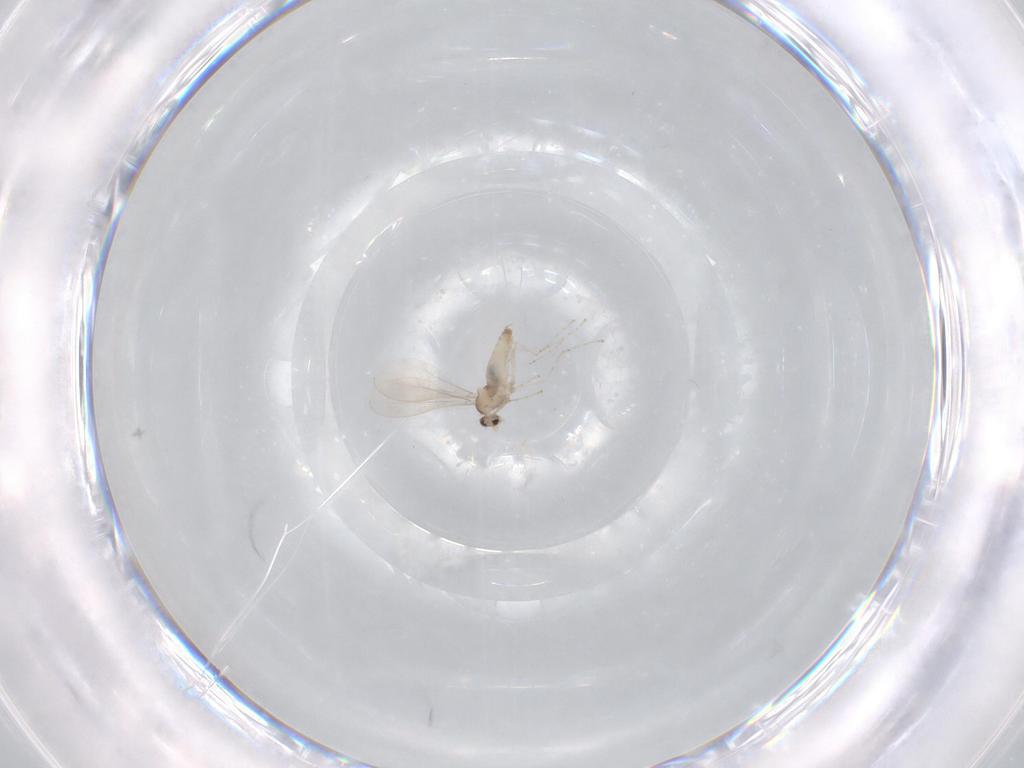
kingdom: Animalia
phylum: Arthropoda
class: Insecta
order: Diptera
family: Cecidomyiidae
